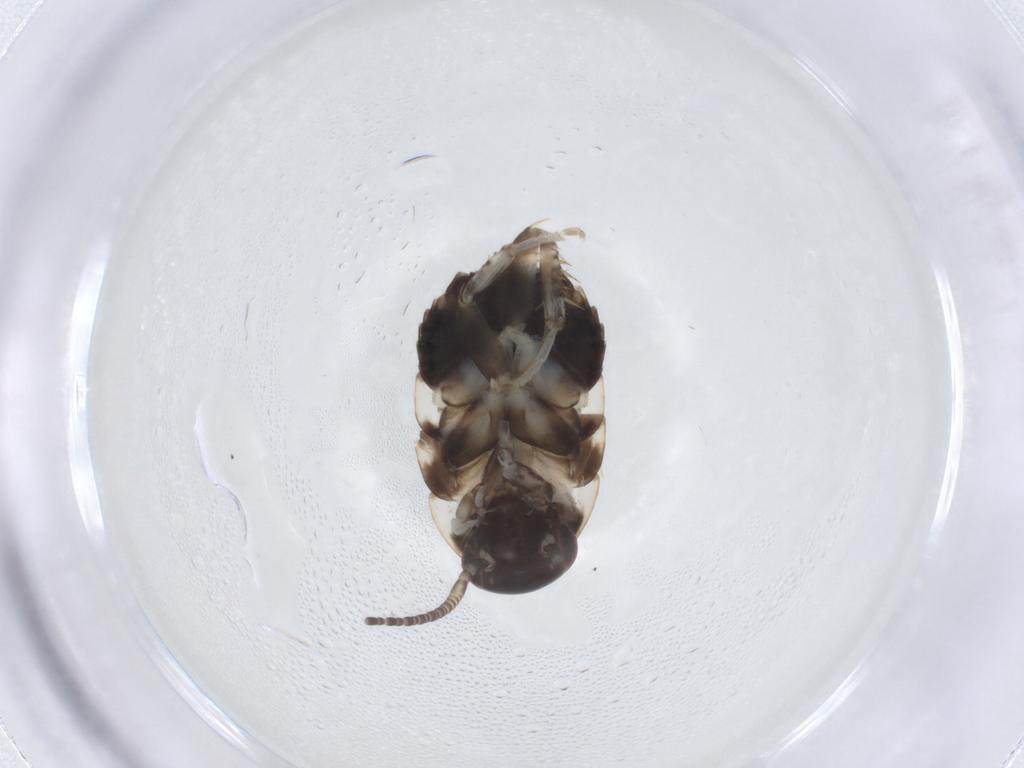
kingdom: Animalia
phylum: Arthropoda
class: Insecta
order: Blattodea
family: Ectobiidae
